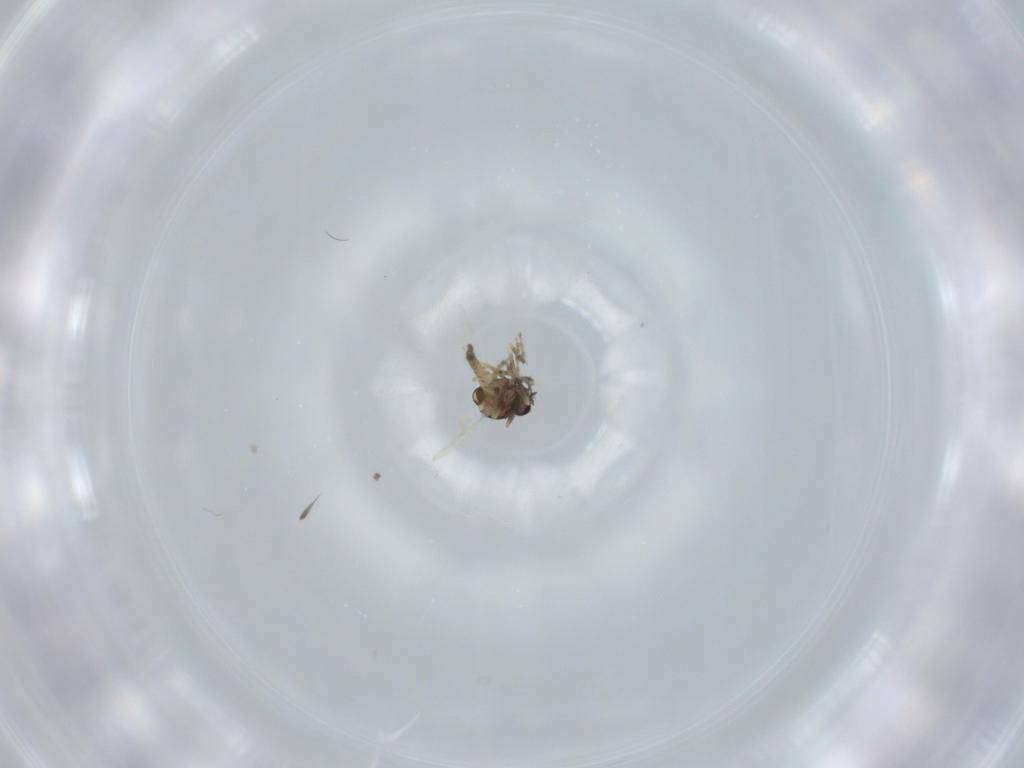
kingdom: Animalia
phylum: Arthropoda
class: Insecta
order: Diptera
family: Ceratopogonidae
